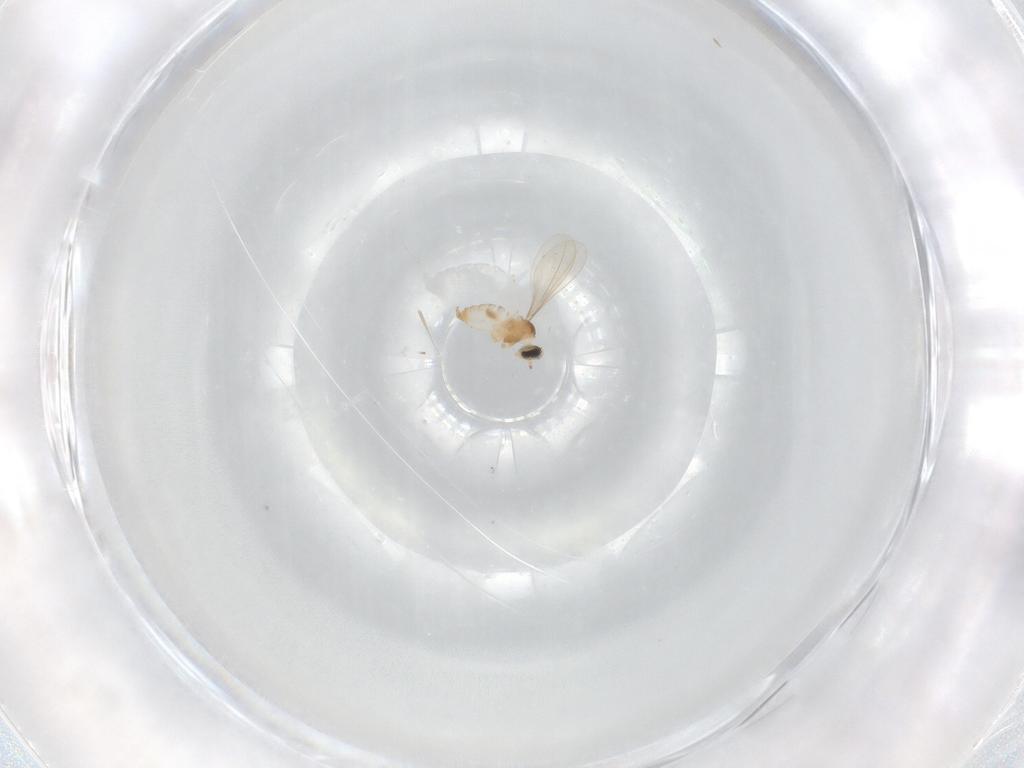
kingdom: Animalia
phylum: Arthropoda
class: Insecta
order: Diptera
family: Cecidomyiidae
